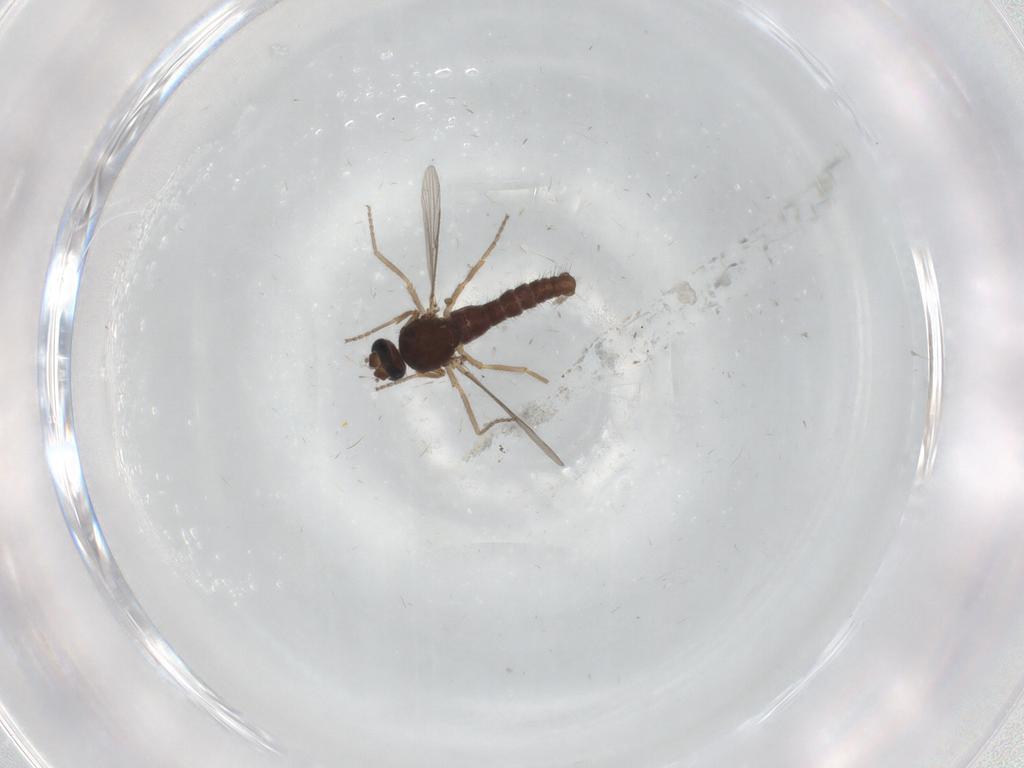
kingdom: Animalia
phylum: Arthropoda
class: Insecta
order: Diptera
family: Ceratopogonidae
